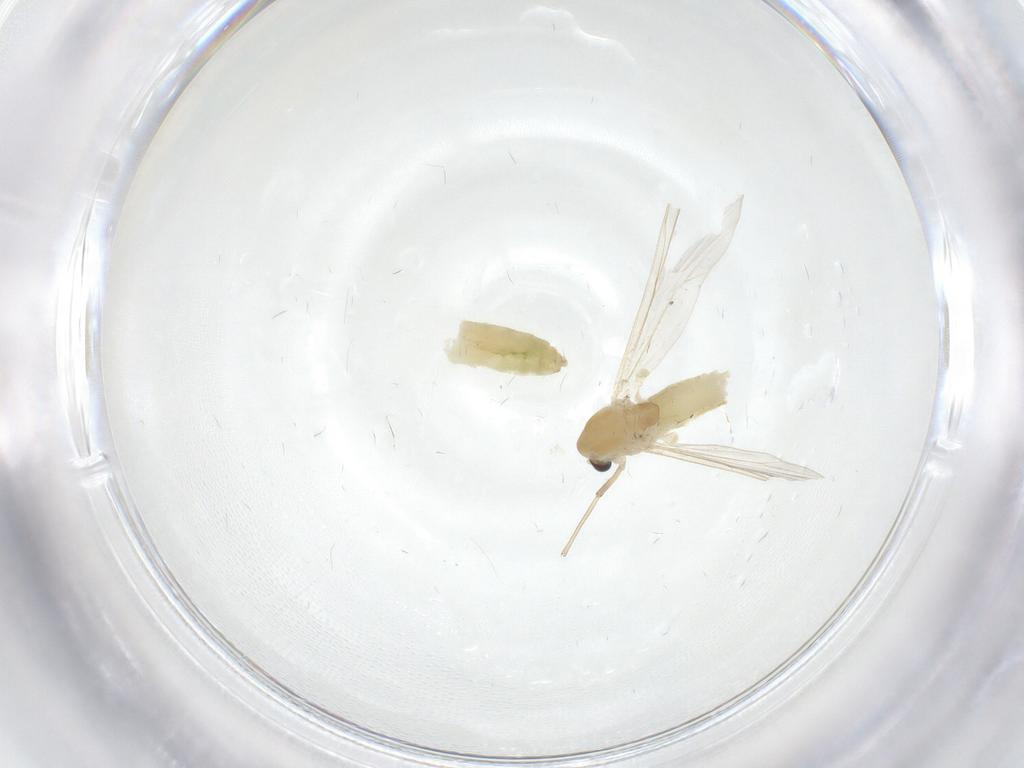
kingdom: Animalia
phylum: Arthropoda
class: Insecta
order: Diptera
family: Chironomidae
